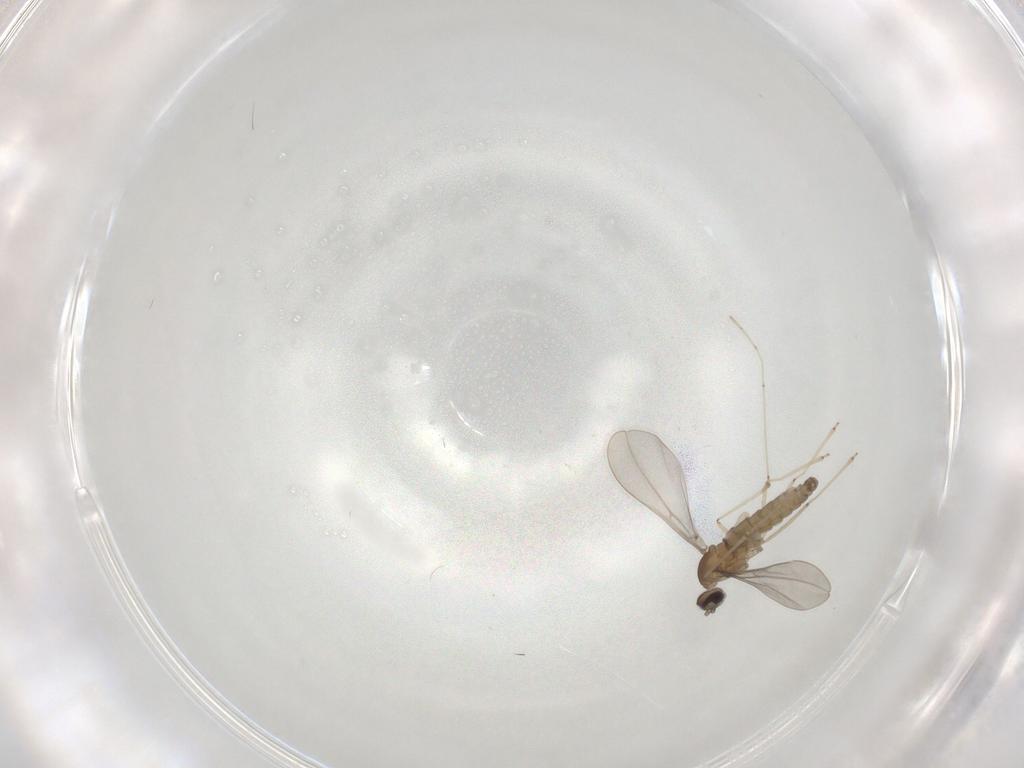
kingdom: Animalia
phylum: Arthropoda
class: Insecta
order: Diptera
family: Cecidomyiidae
